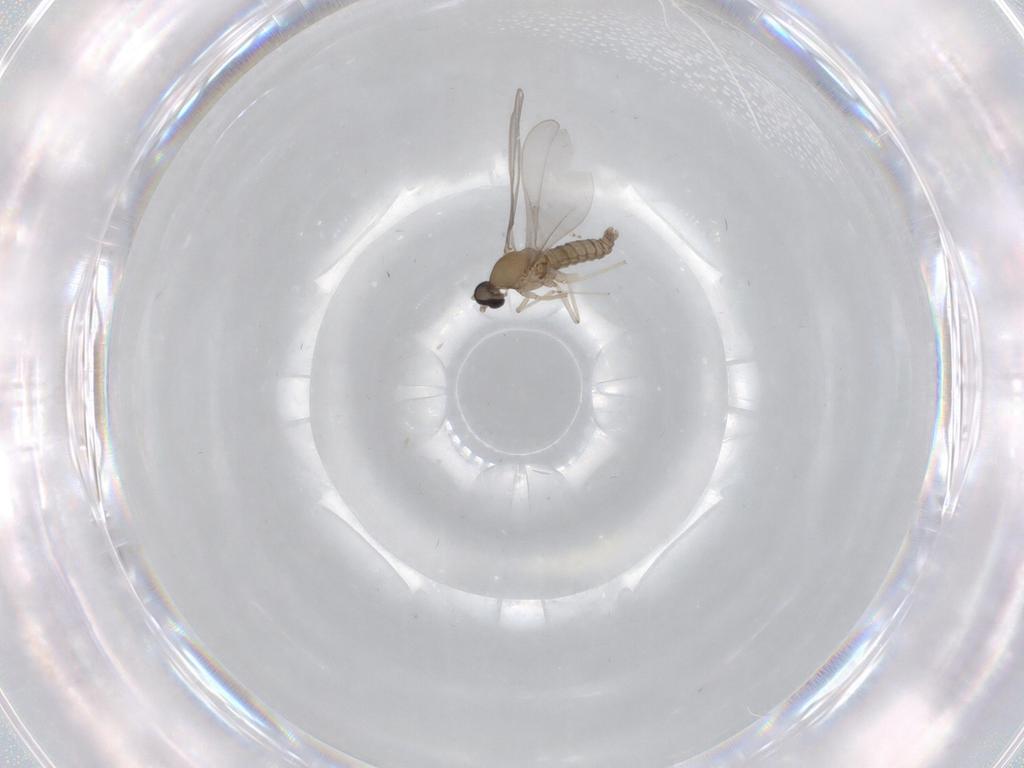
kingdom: Animalia
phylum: Arthropoda
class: Insecta
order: Diptera
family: Cecidomyiidae
